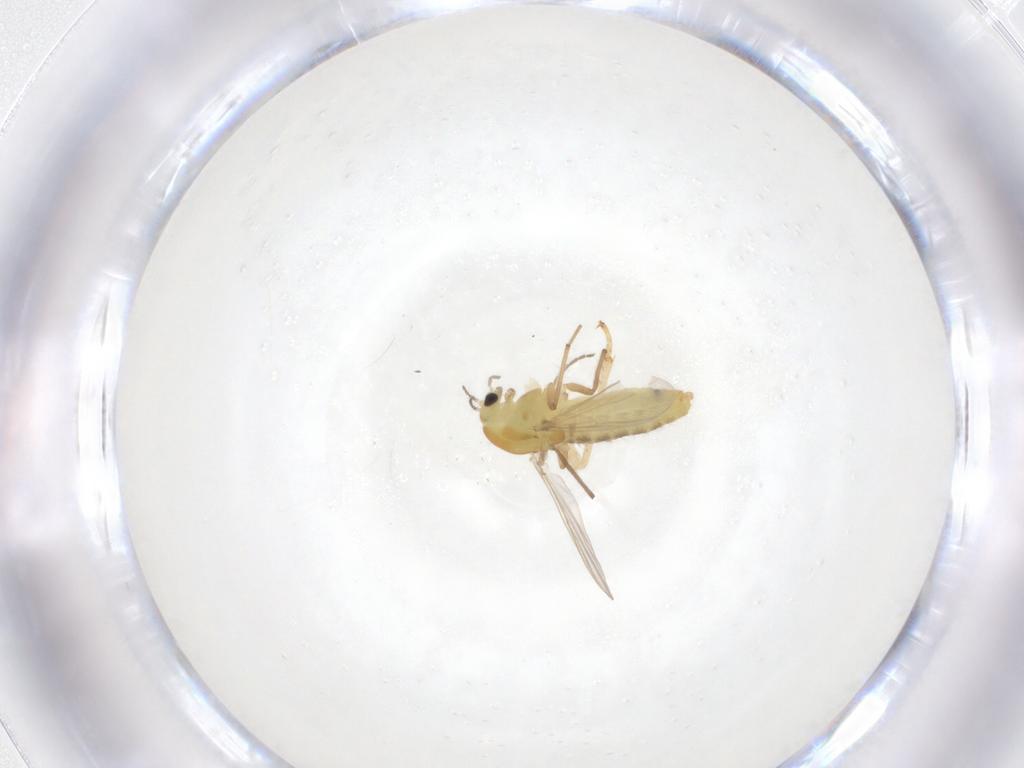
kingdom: Animalia
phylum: Arthropoda
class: Insecta
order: Diptera
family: Chironomidae
